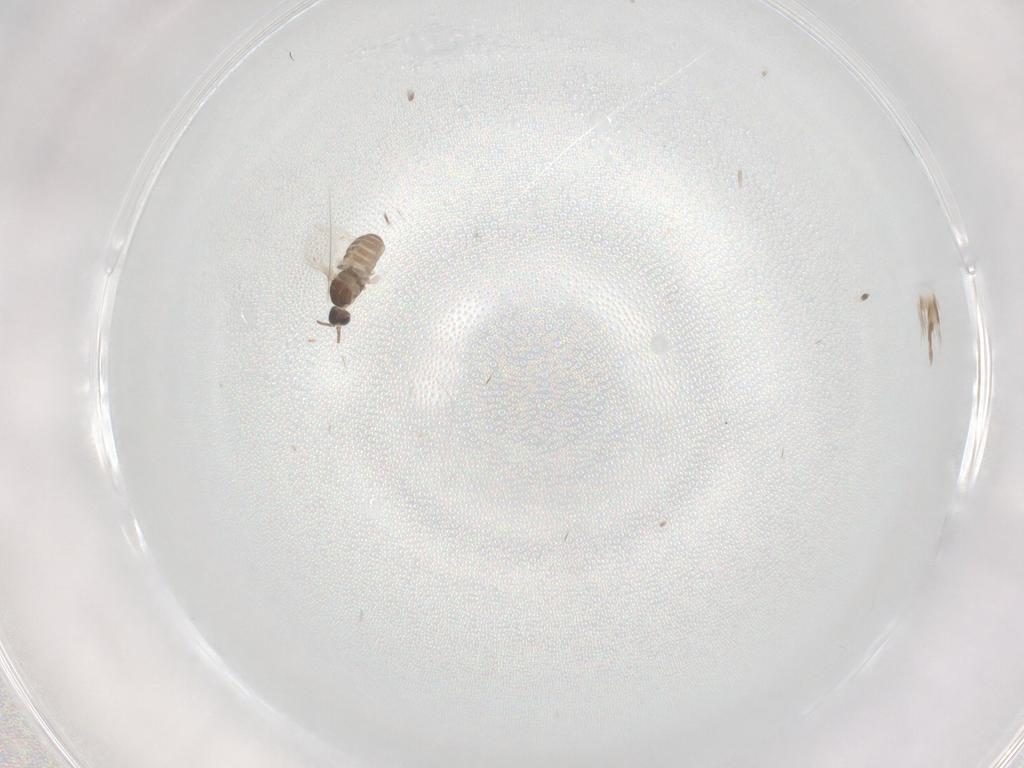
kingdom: Animalia
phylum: Arthropoda
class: Insecta
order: Diptera
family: Cecidomyiidae
